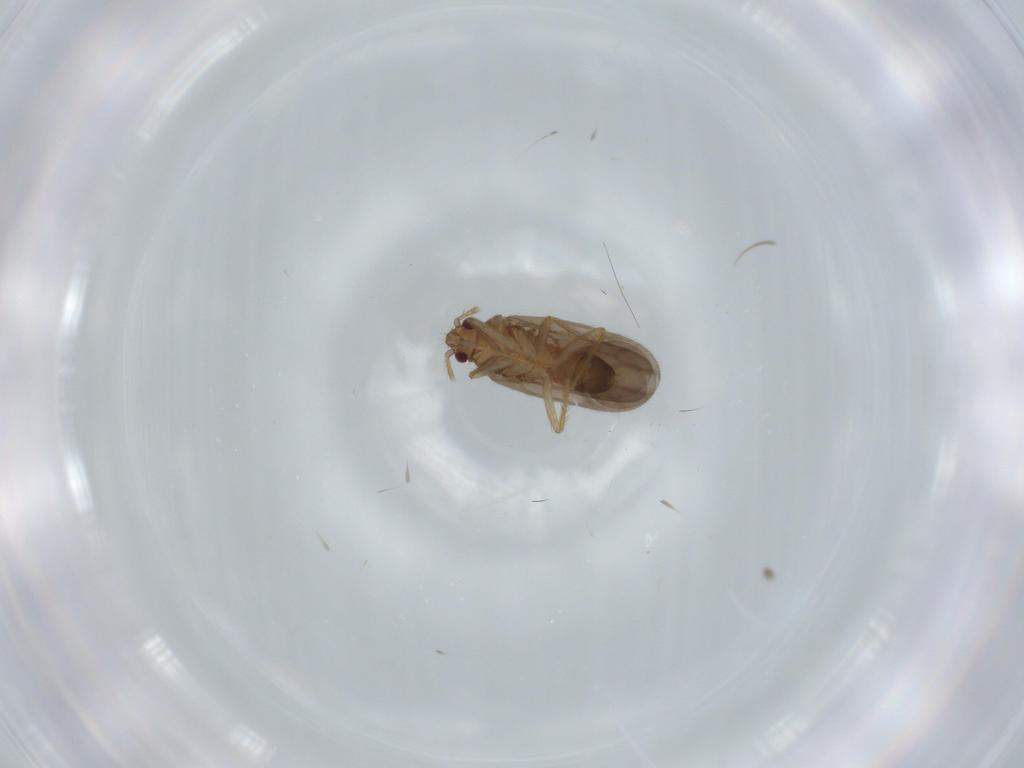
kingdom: Animalia
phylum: Arthropoda
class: Insecta
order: Hemiptera
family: Ceratocombidae
